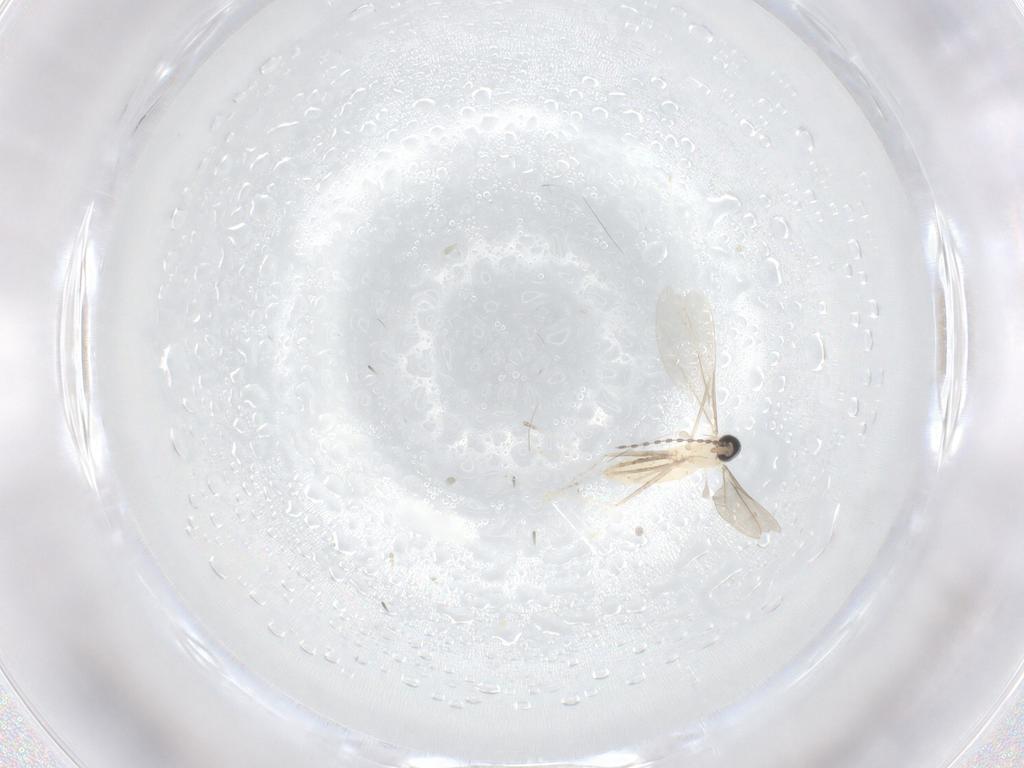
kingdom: Animalia
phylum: Arthropoda
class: Insecta
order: Diptera
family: Cecidomyiidae
